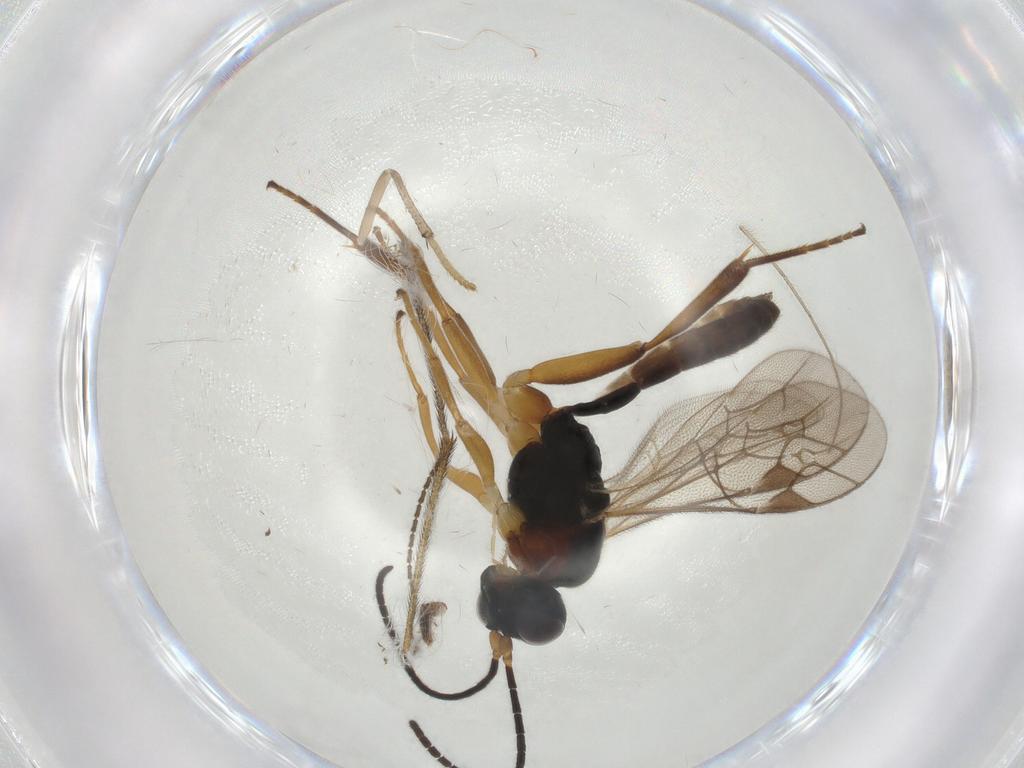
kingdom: Animalia
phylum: Arthropoda
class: Insecta
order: Hymenoptera
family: Ichneumonidae
